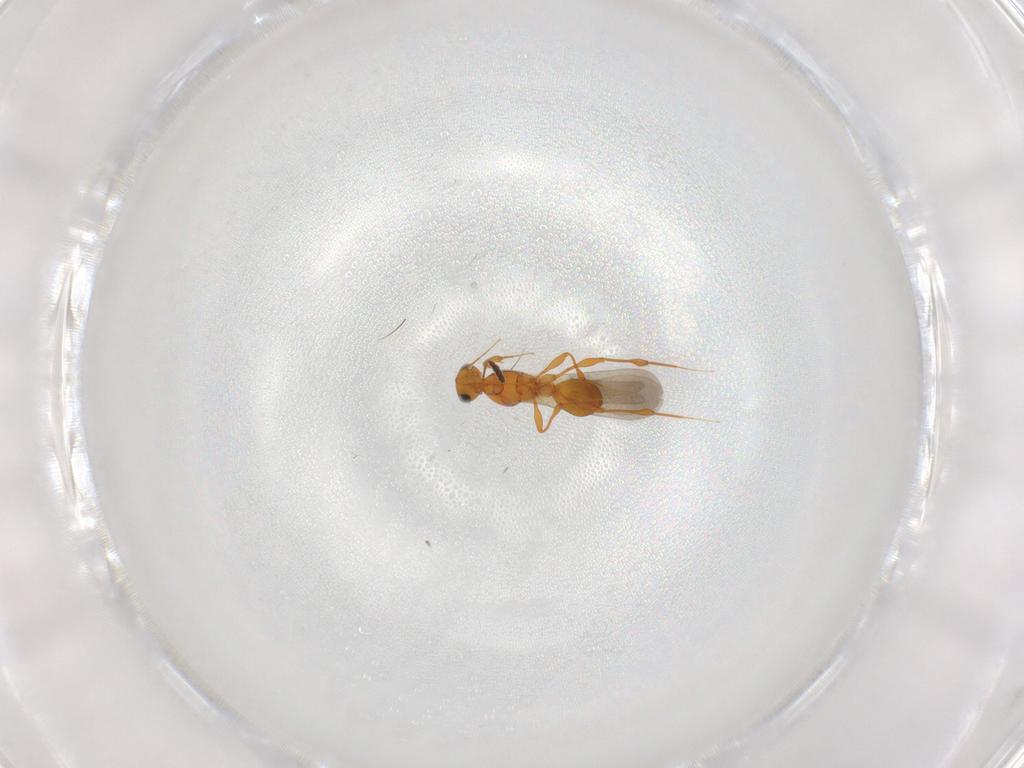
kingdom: Animalia
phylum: Arthropoda
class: Insecta
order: Hymenoptera
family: Platygastridae
